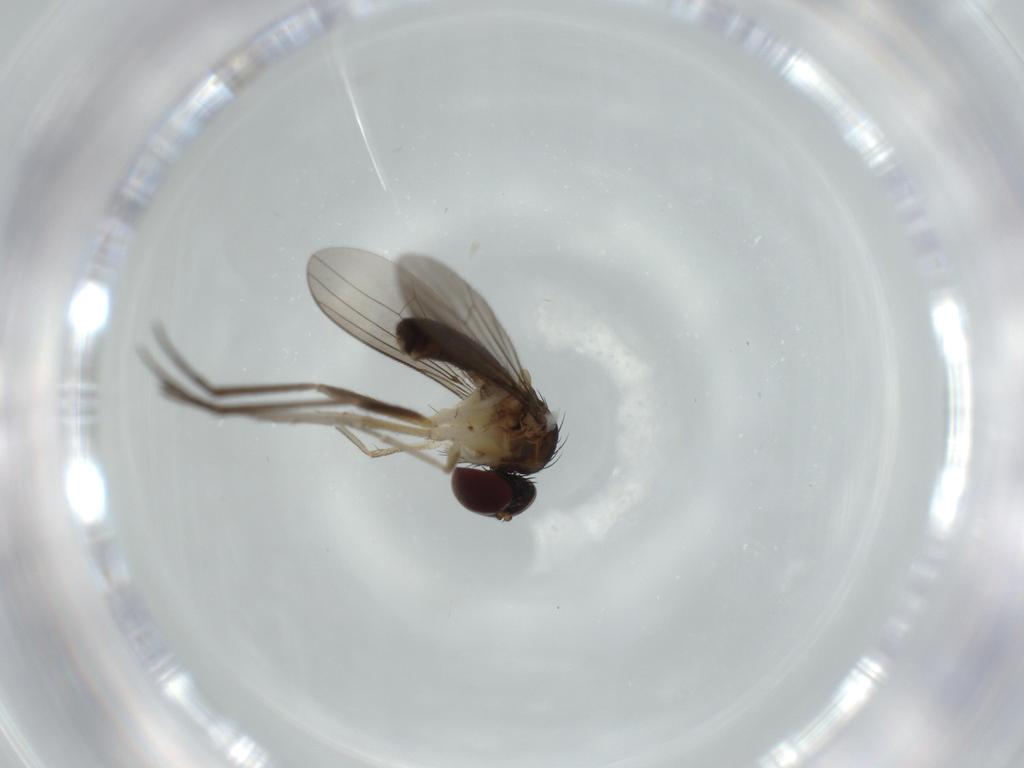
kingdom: Animalia
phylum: Arthropoda
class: Insecta
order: Diptera
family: Dolichopodidae
